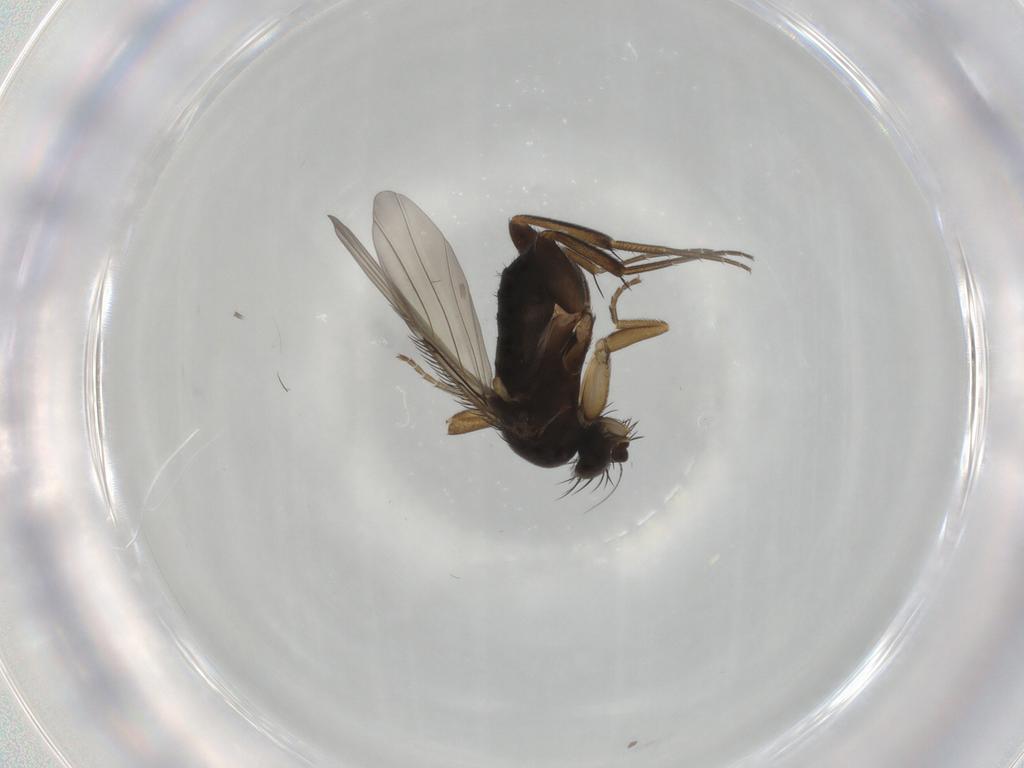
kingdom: Animalia
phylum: Arthropoda
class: Insecta
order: Diptera
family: Phoridae
